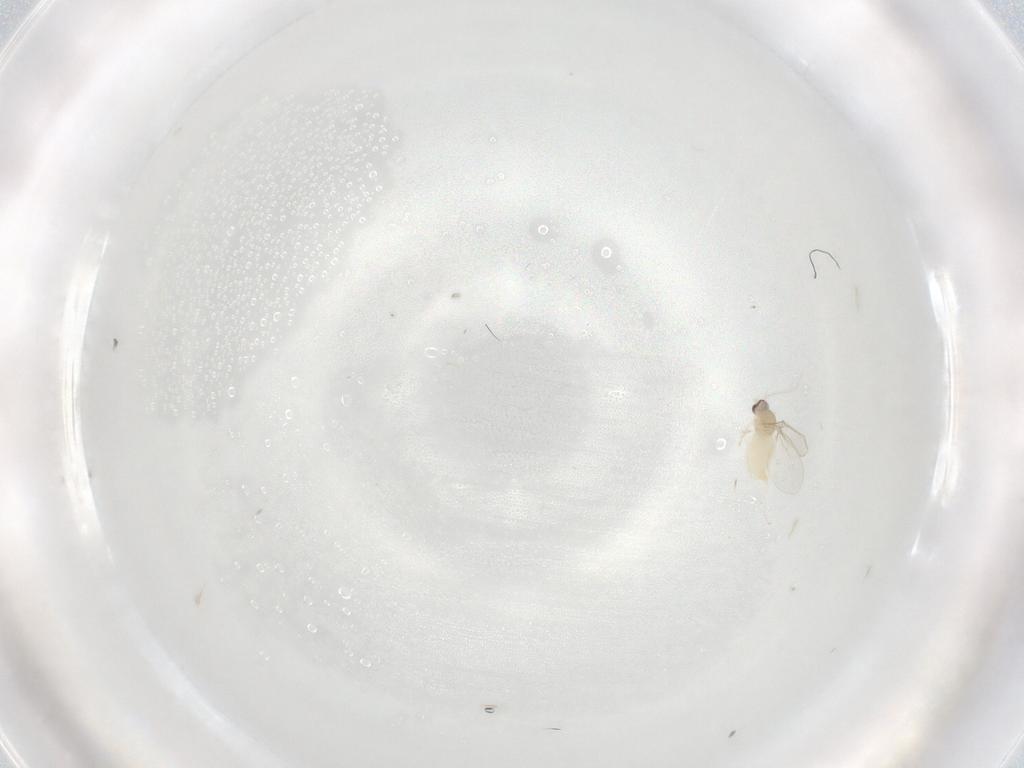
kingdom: Animalia
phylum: Arthropoda
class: Insecta
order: Diptera
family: Cecidomyiidae
